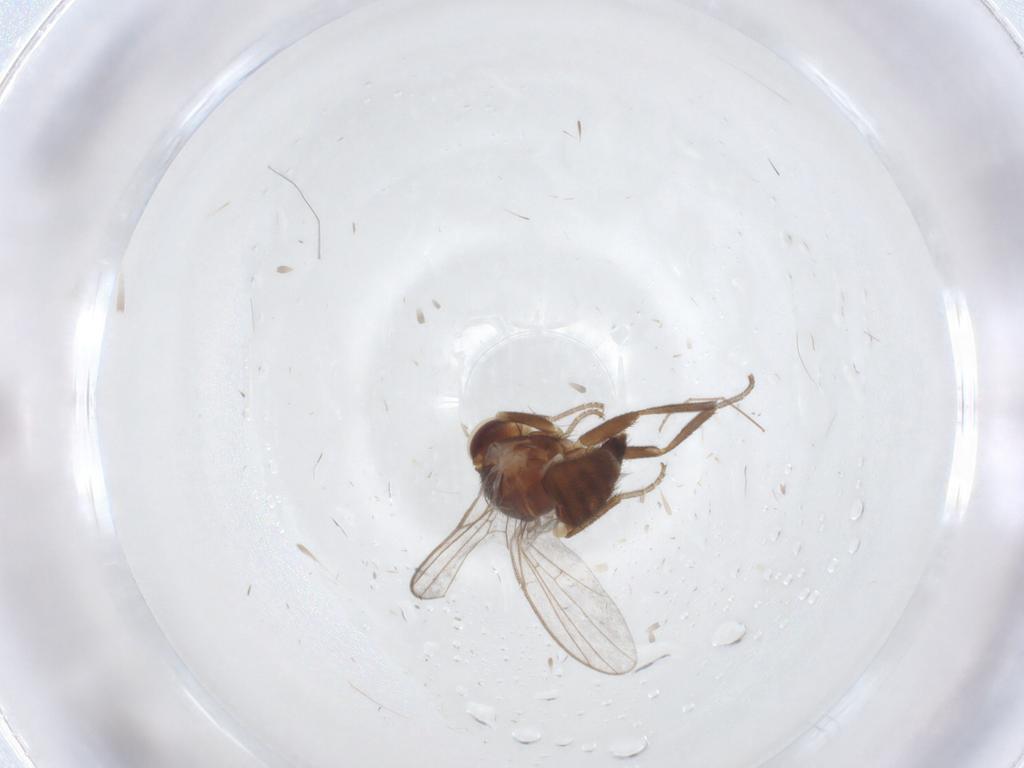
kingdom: Animalia
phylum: Arthropoda
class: Insecta
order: Diptera
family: Agromyzidae
